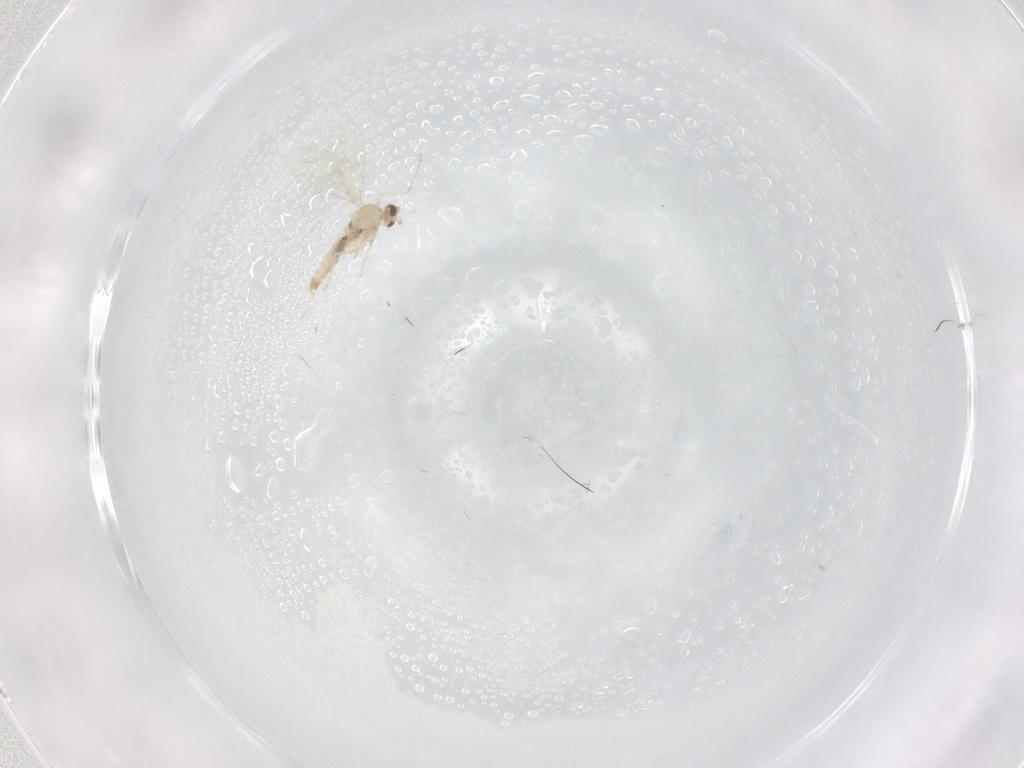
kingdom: Animalia
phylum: Arthropoda
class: Insecta
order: Diptera
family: Cecidomyiidae
